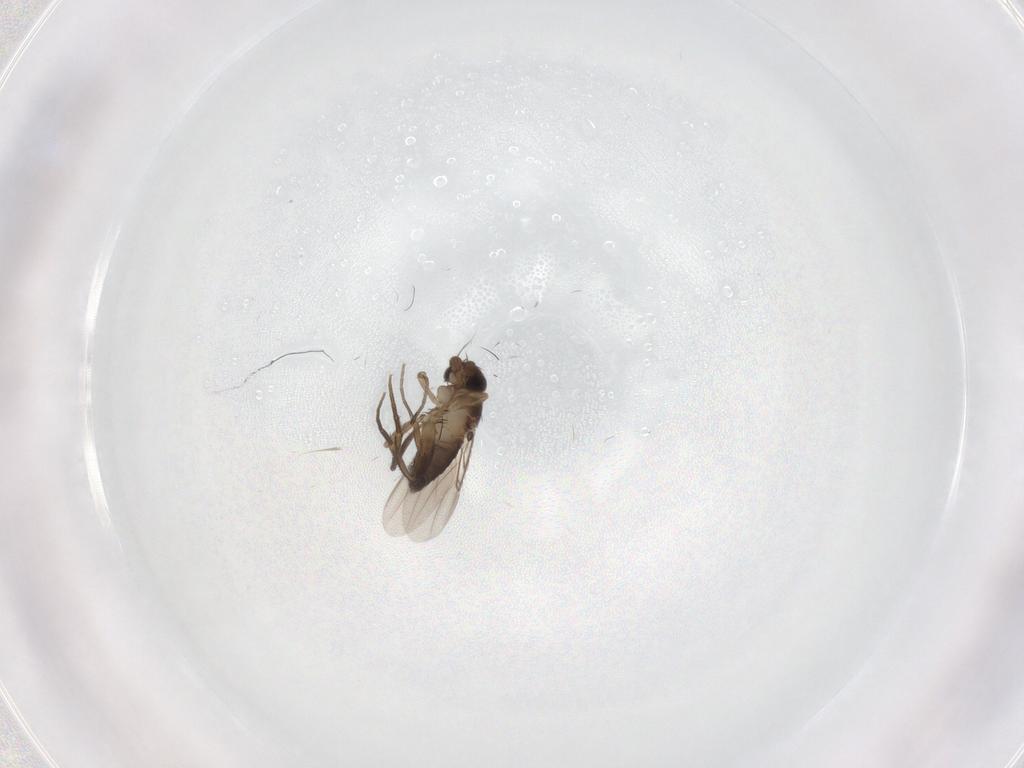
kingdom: Animalia
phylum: Arthropoda
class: Insecta
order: Diptera
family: Phoridae
